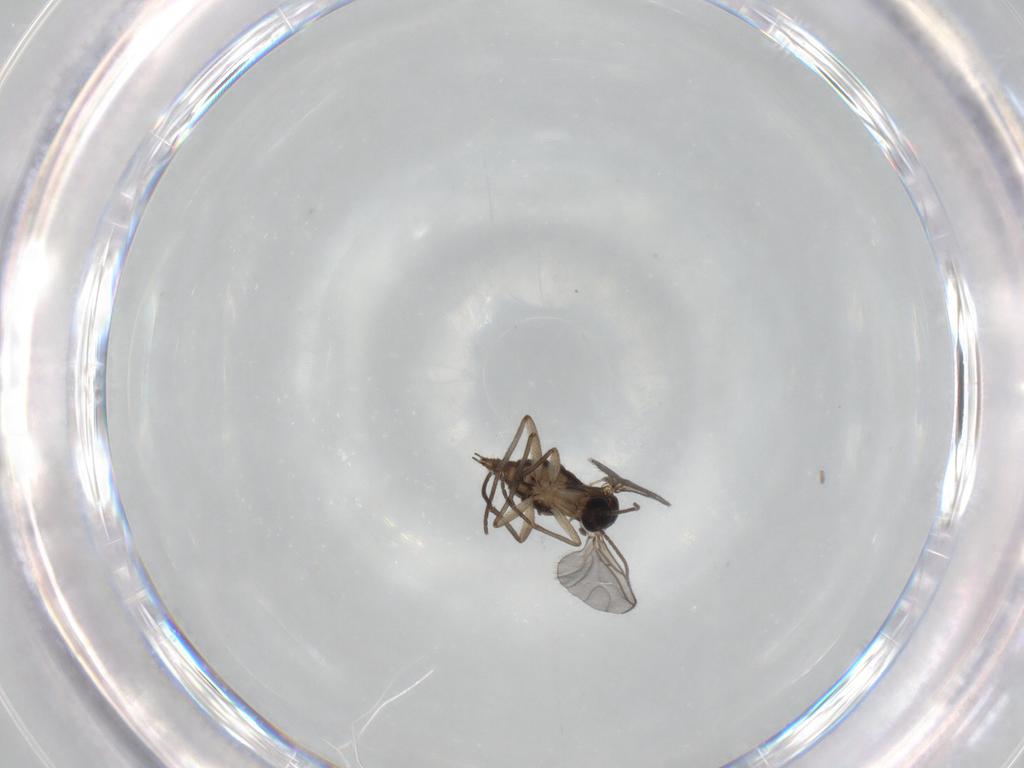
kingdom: Animalia
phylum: Arthropoda
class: Insecta
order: Diptera
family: Sciaridae
